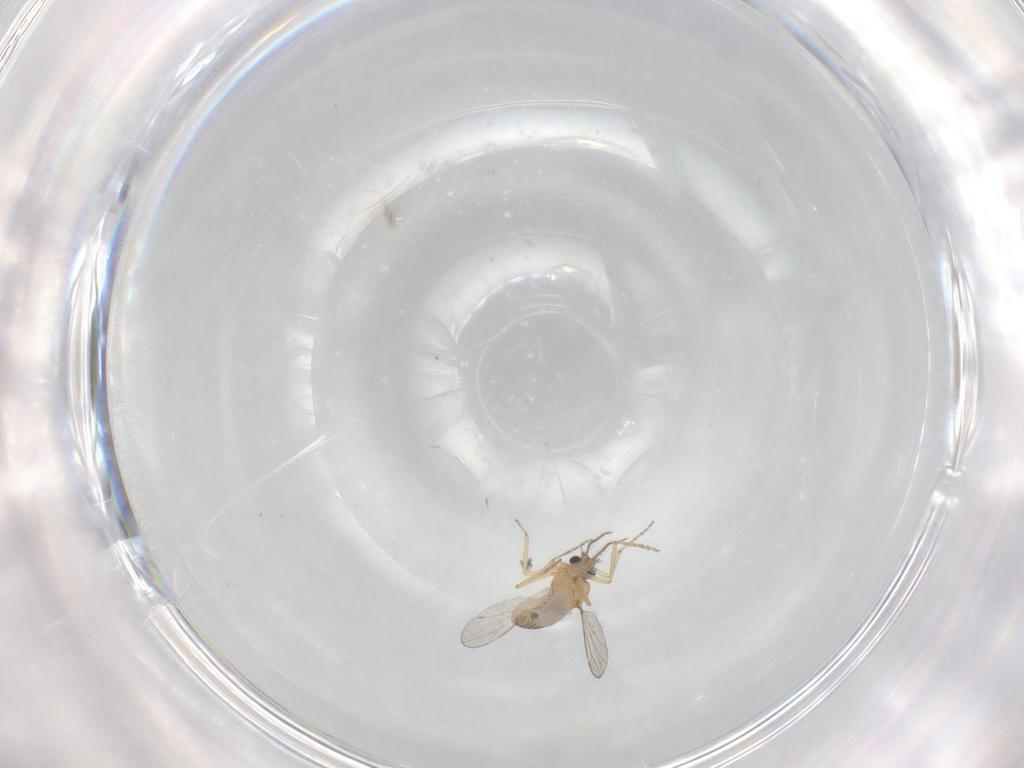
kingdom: Animalia
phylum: Arthropoda
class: Insecta
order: Diptera
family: Ceratopogonidae
